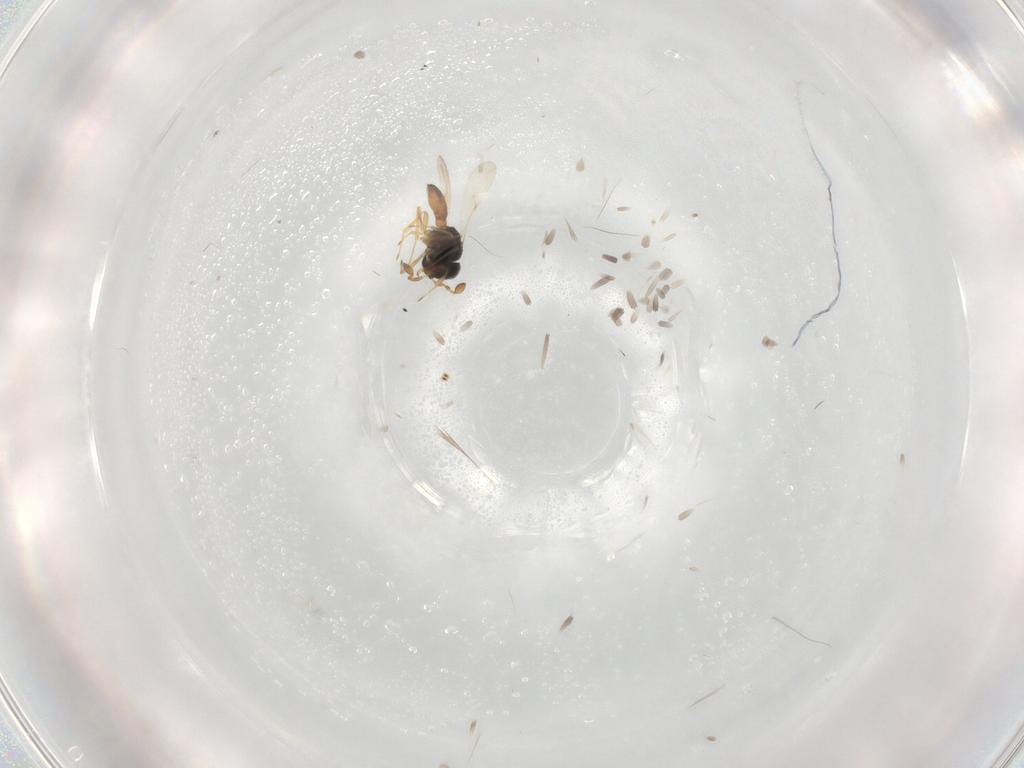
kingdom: Animalia
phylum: Arthropoda
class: Insecta
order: Hymenoptera
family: Scelionidae
